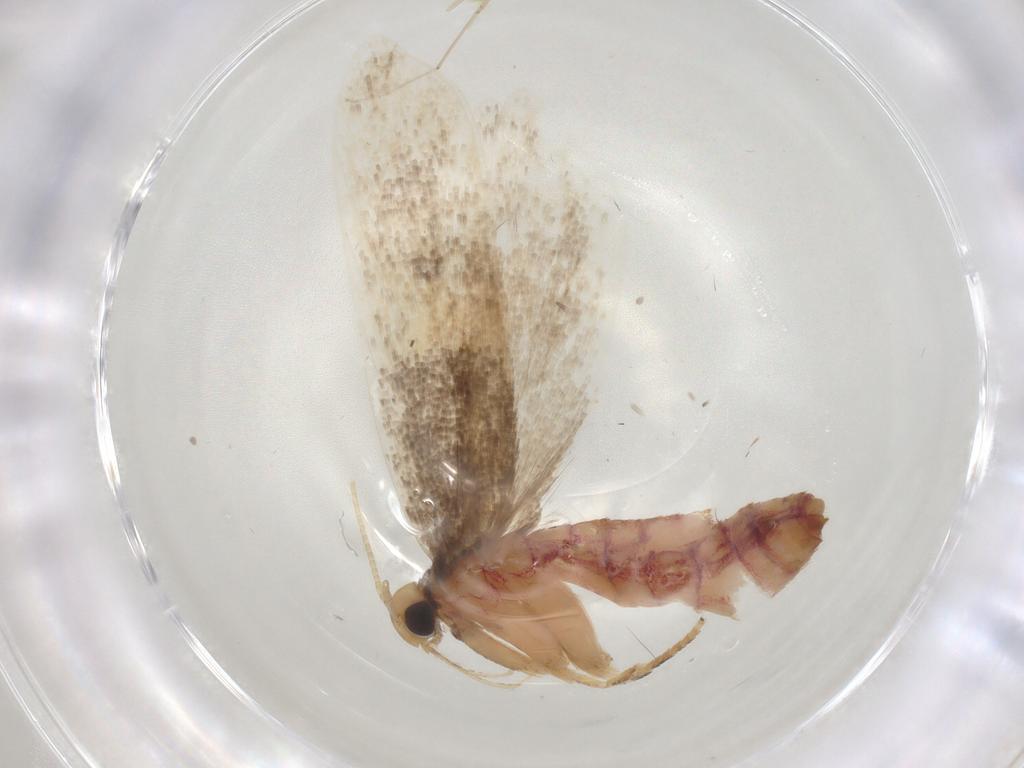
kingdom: Animalia
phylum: Arthropoda
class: Insecta
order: Lepidoptera
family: Lecithoceridae
